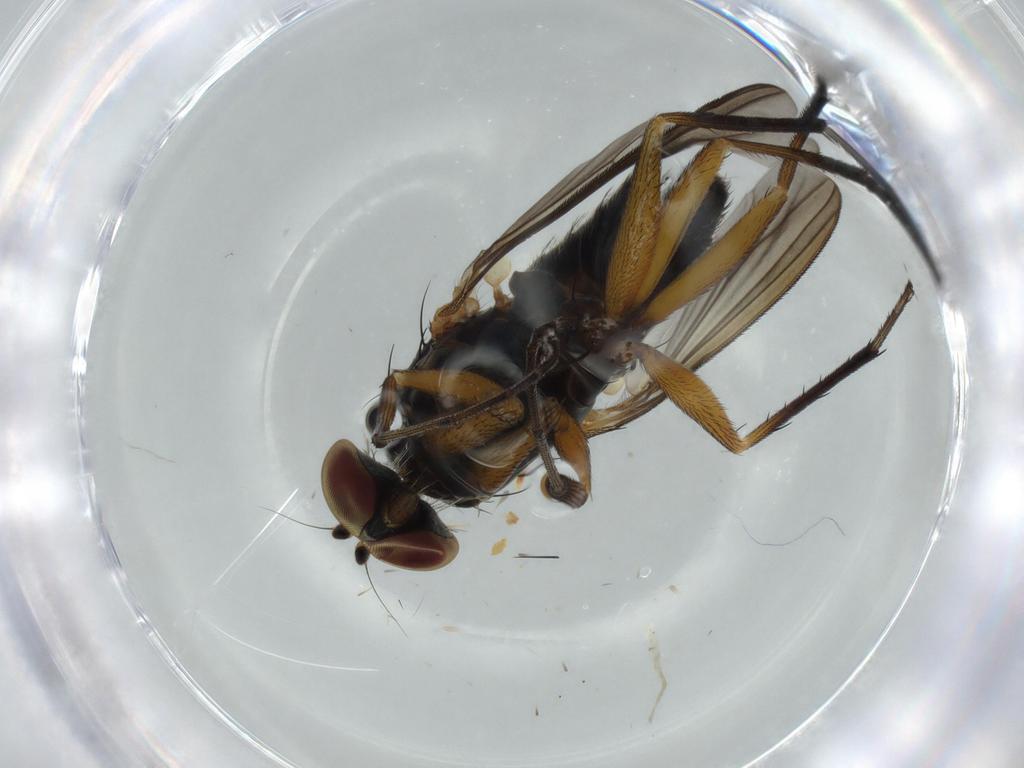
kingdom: Animalia
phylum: Arthropoda
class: Insecta
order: Diptera
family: Dolichopodidae
